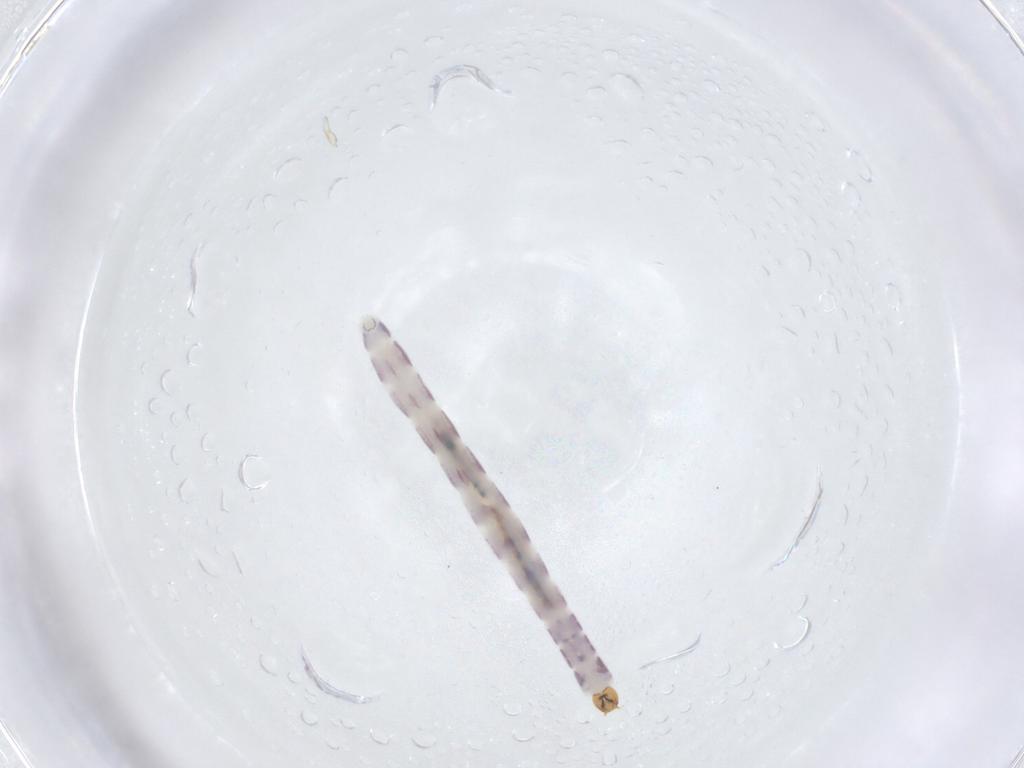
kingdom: Animalia
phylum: Arthropoda
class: Insecta
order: Diptera
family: Chironomidae
